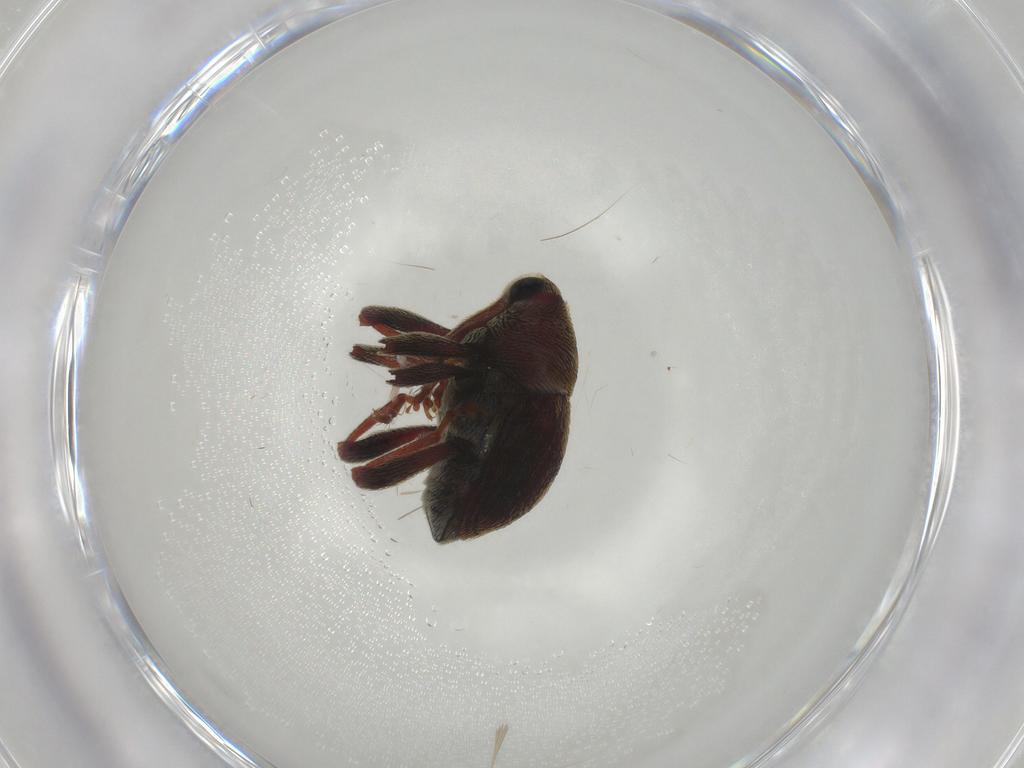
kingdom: Animalia
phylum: Arthropoda
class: Insecta
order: Coleoptera
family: Curculionidae
